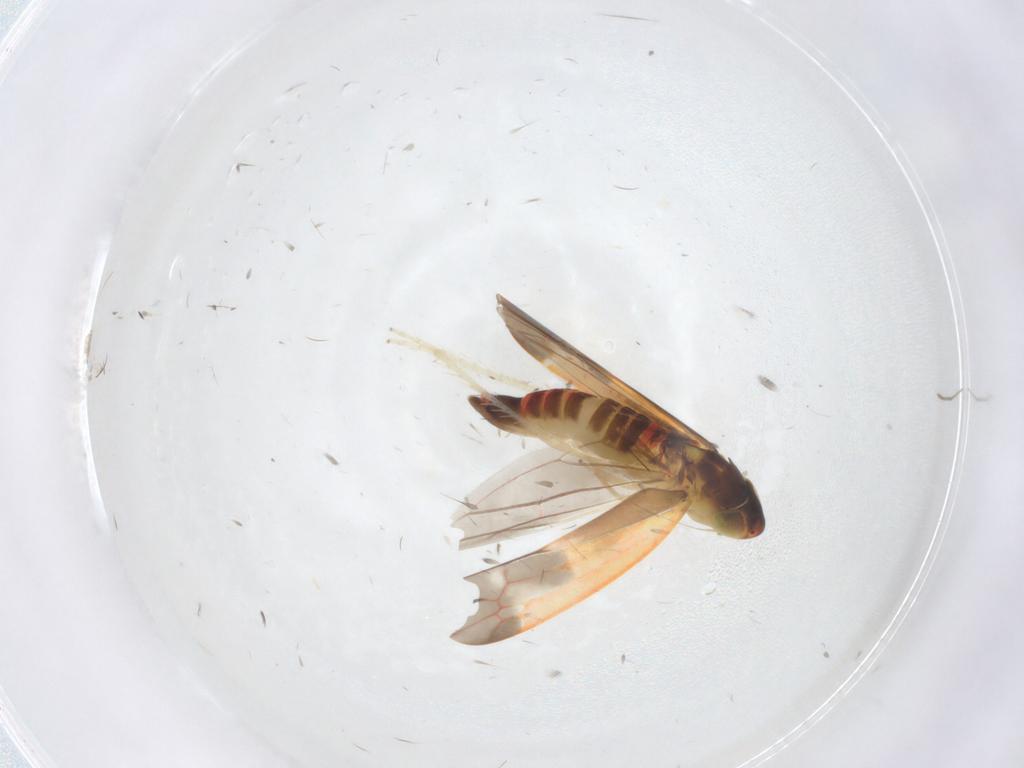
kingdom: Animalia
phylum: Arthropoda
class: Insecta
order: Hemiptera
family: Cicadellidae
